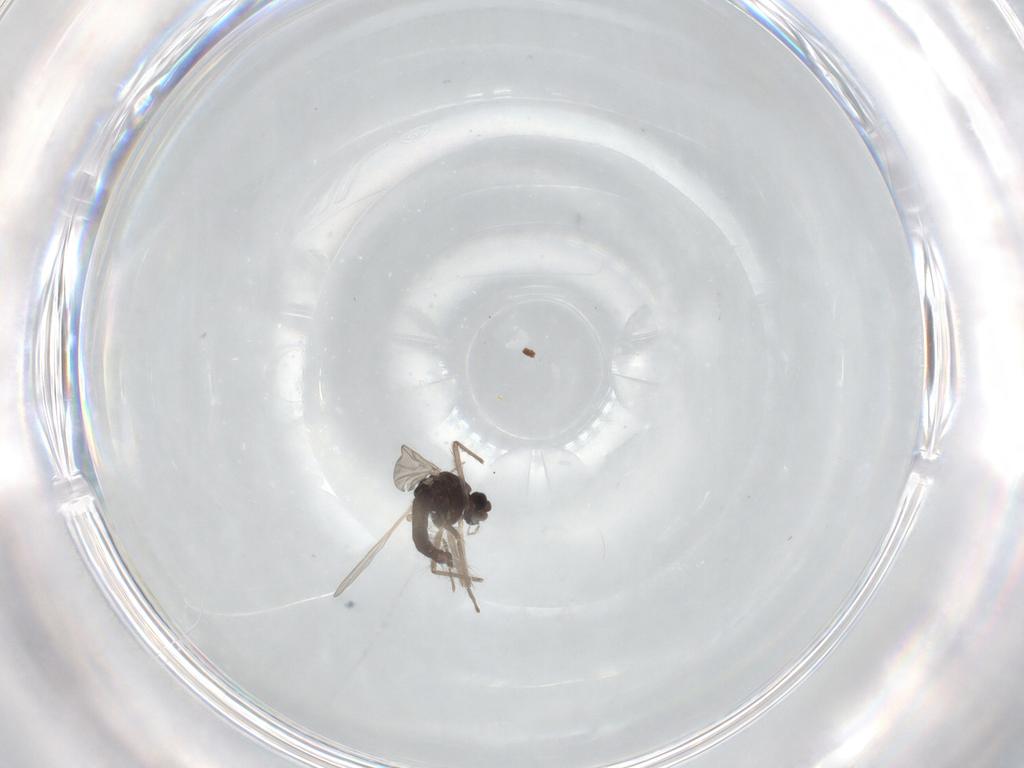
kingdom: Animalia
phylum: Arthropoda
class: Insecta
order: Diptera
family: Chironomidae
